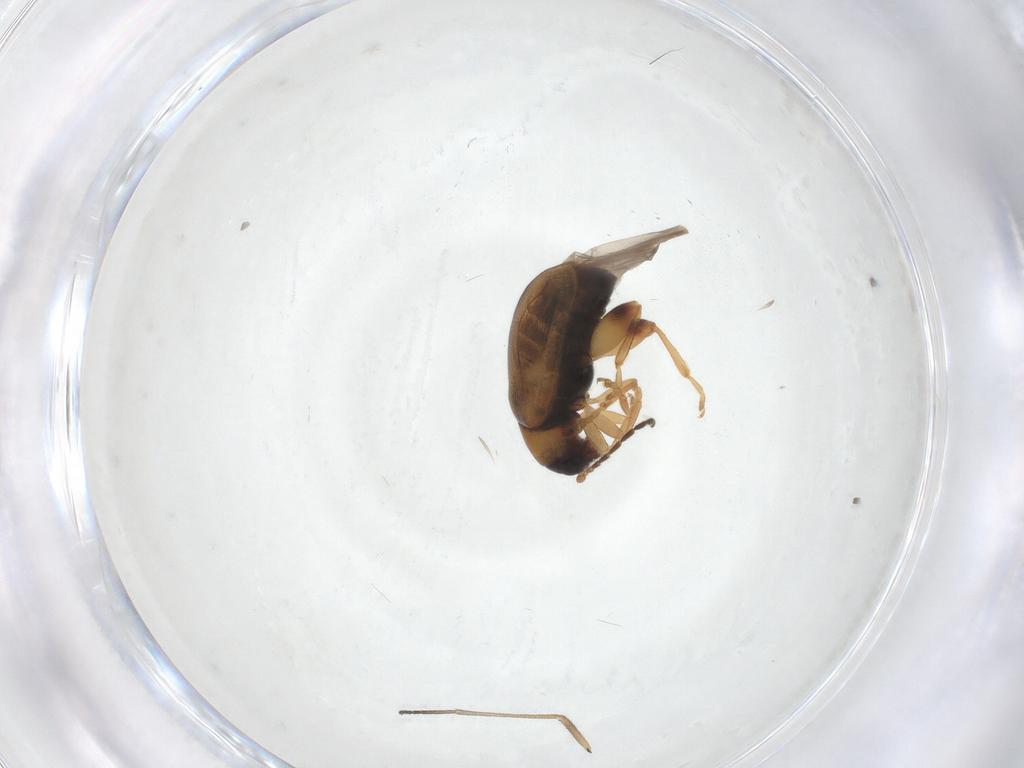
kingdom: Animalia
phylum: Arthropoda
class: Insecta
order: Coleoptera
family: Chrysomelidae
